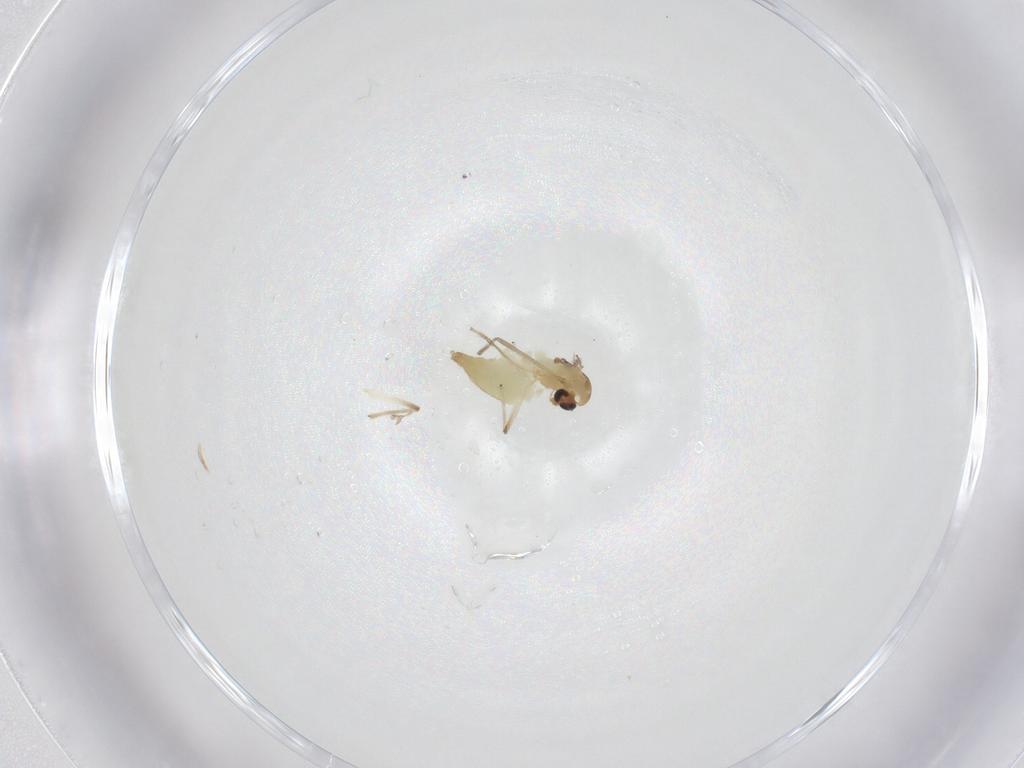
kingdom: Animalia
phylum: Arthropoda
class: Insecta
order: Diptera
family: Chironomidae
